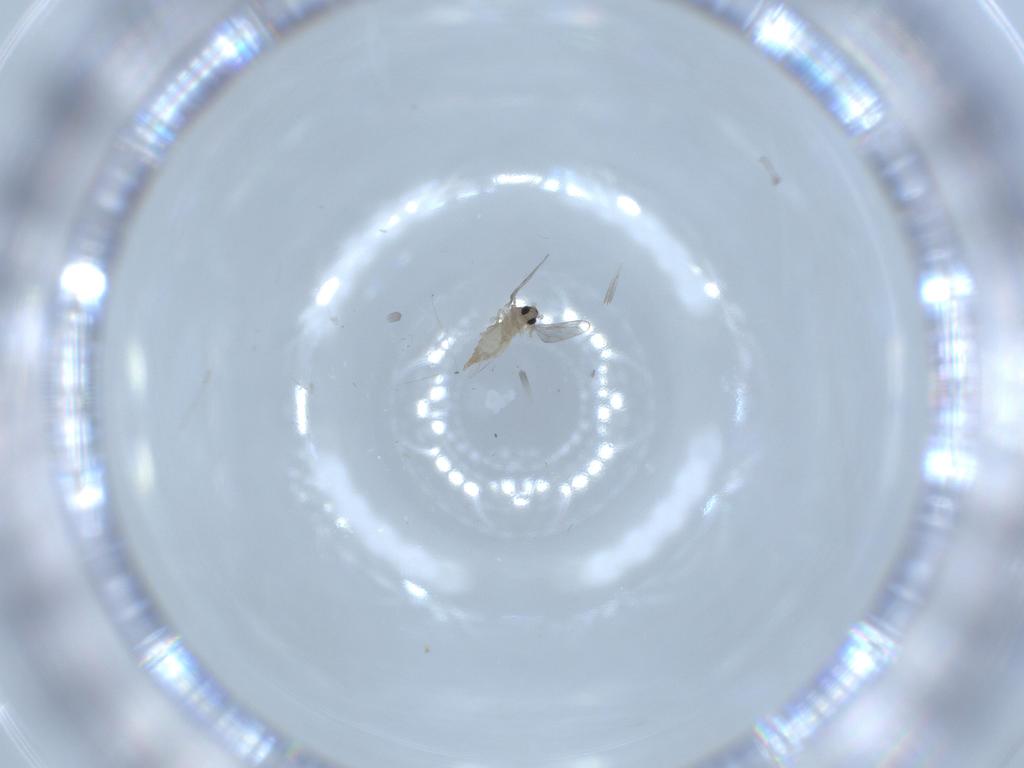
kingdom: Animalia
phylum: Arthropoda
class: Insecta
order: Diptera
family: Cecidomyiidae
